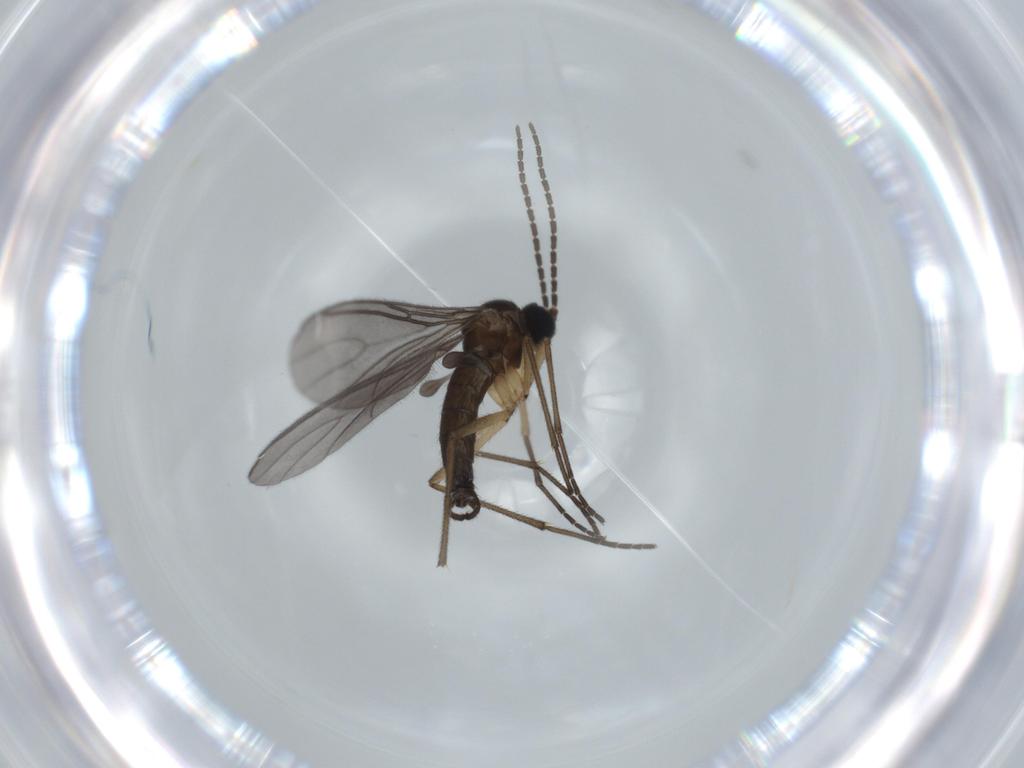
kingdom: Animalia
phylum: Arthropoda
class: Insecta
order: Diptera
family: Sciaridae
